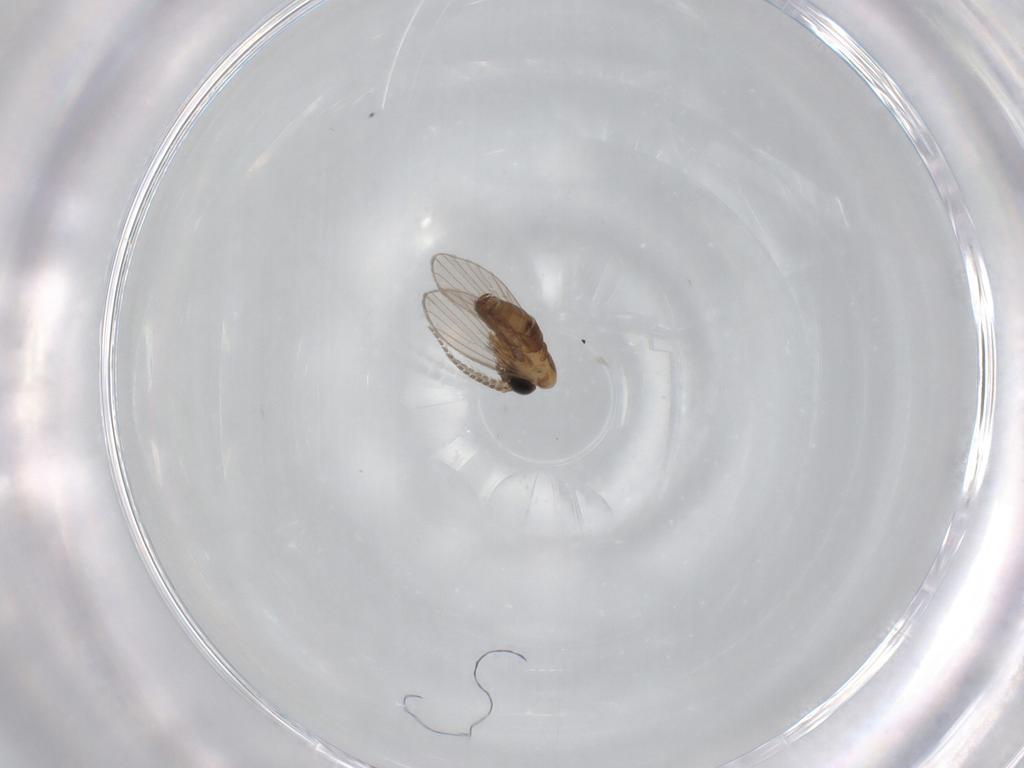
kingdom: Animalia
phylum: Arthropoda
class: Insecta
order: Diptera
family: Psychodidae
